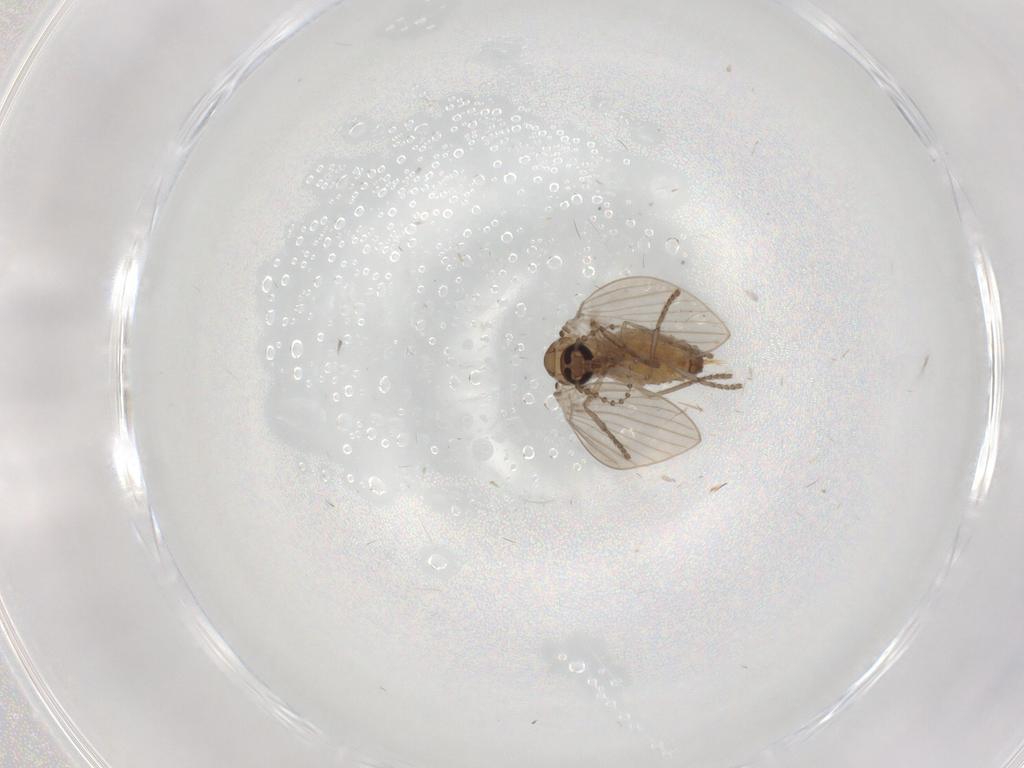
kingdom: Animalia
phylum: Arthropoda
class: Insecta
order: Diptera
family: Psychodidae
